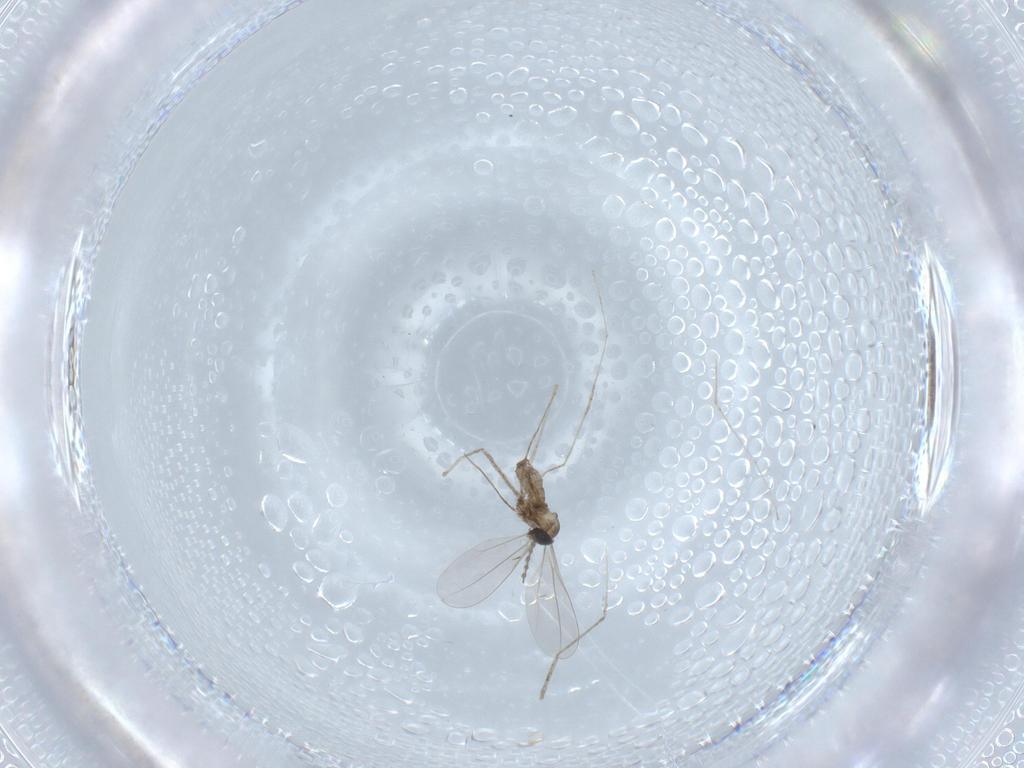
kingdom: Animalia
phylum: Arthropoda
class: Insecta
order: Diptera
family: Cecidomyiidae
